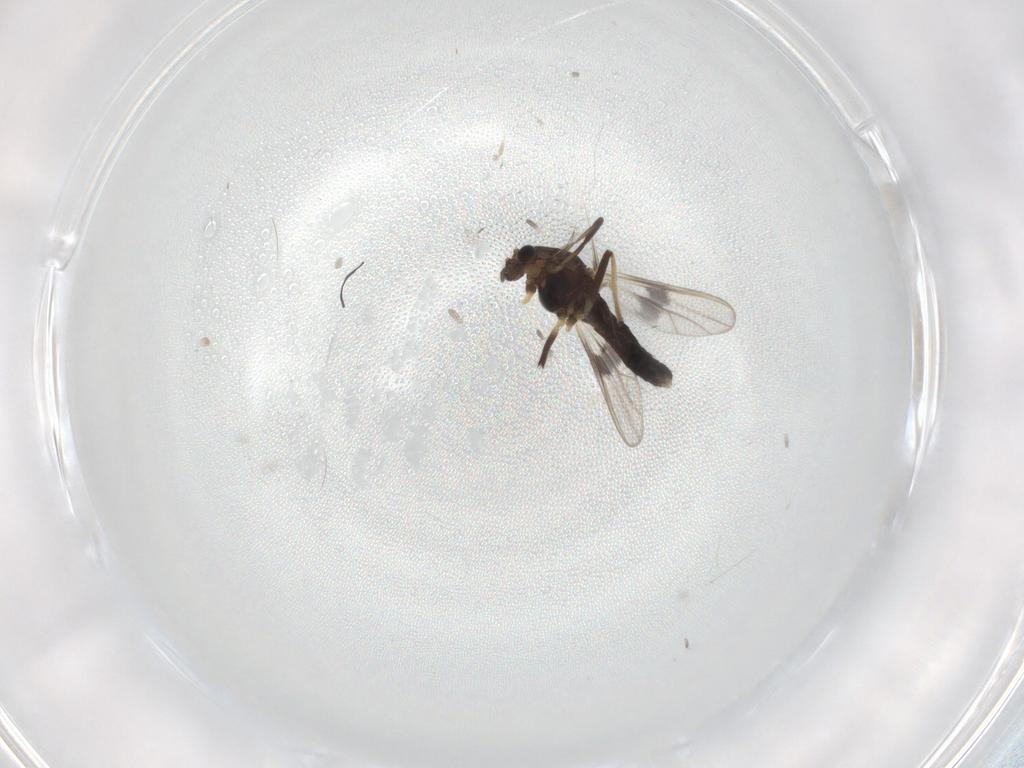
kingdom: Animalia
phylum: Arthropoda
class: Insecta
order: Diptera
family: Chironomidae
